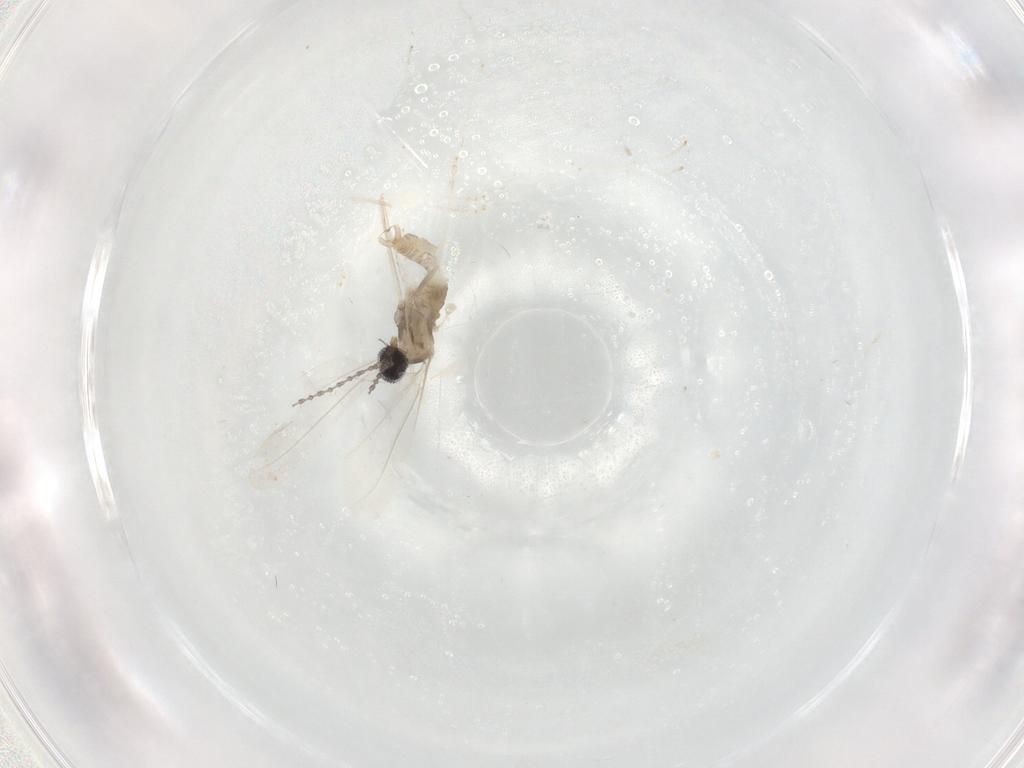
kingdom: Animalia
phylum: Arthropoda
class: Insecta
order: Diptera
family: Cecidomyiidae
